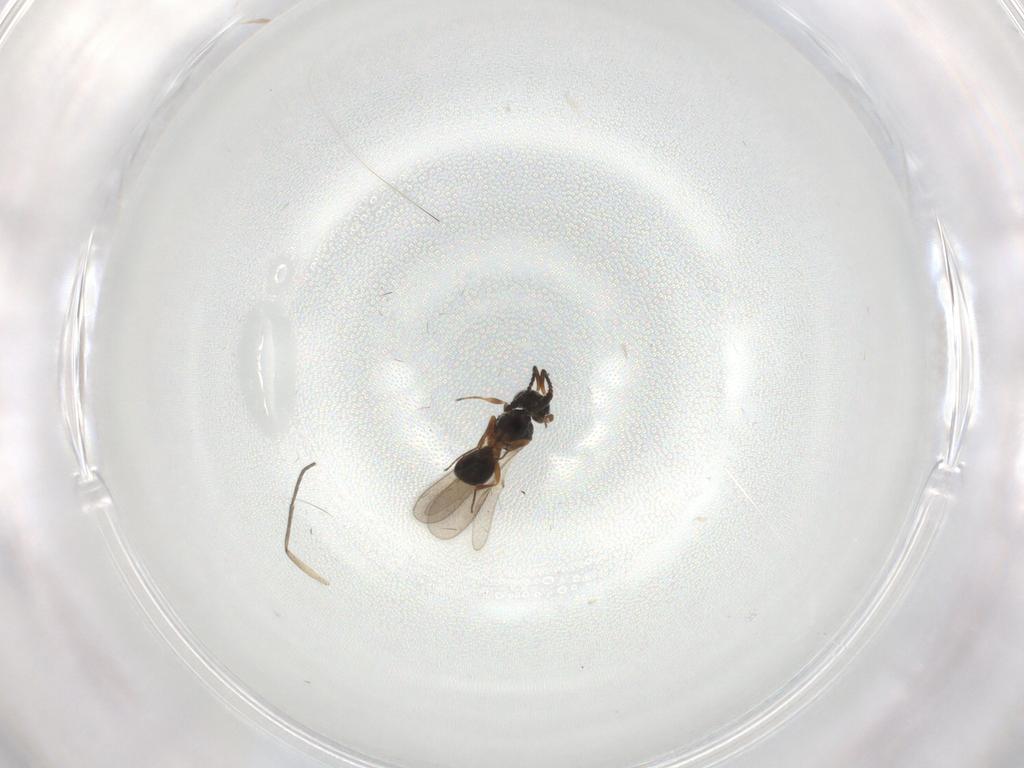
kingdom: Animalia
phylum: Arthropoda
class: Insecta
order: Hymenoptera
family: Scelionidae
